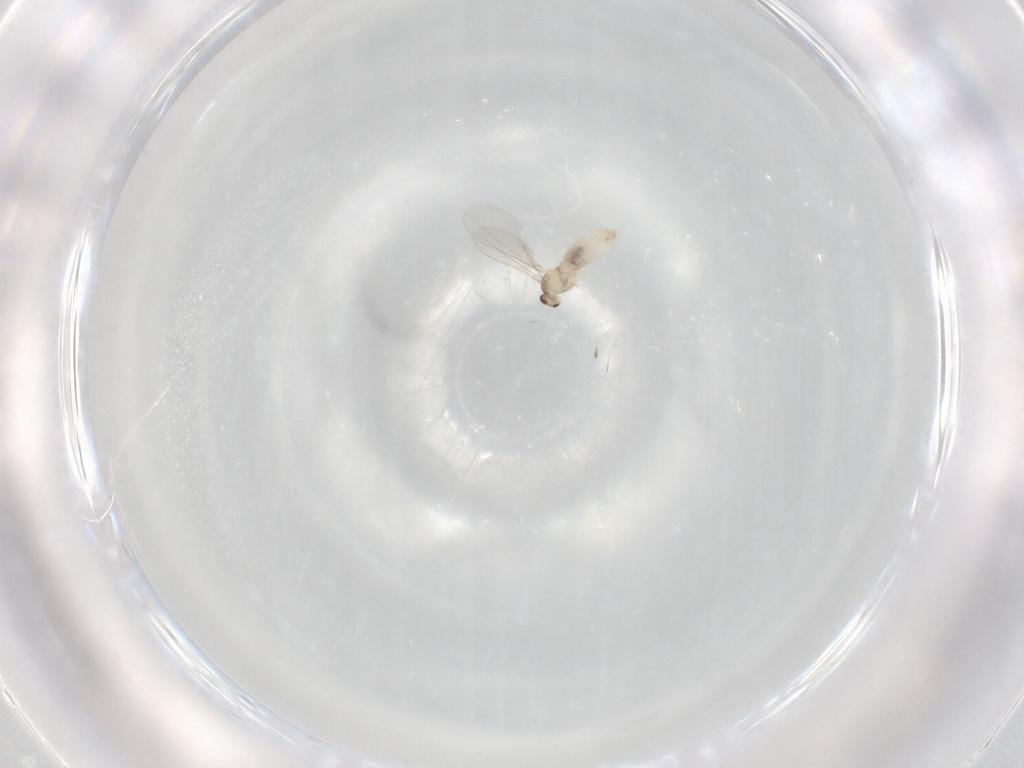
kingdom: Animalia
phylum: Arthropoda
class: Insecta
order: Diptera
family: Cecidomyiidae
